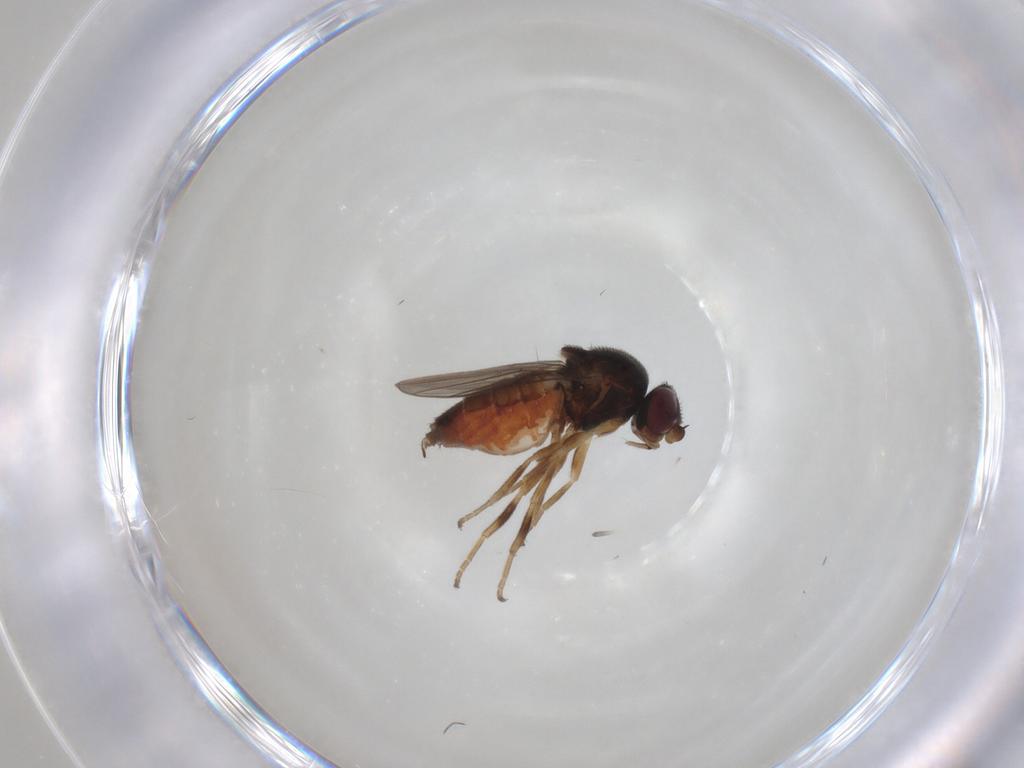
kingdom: Animalia
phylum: Arthropoda
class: Insecta
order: Diptera
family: Chloropidae
